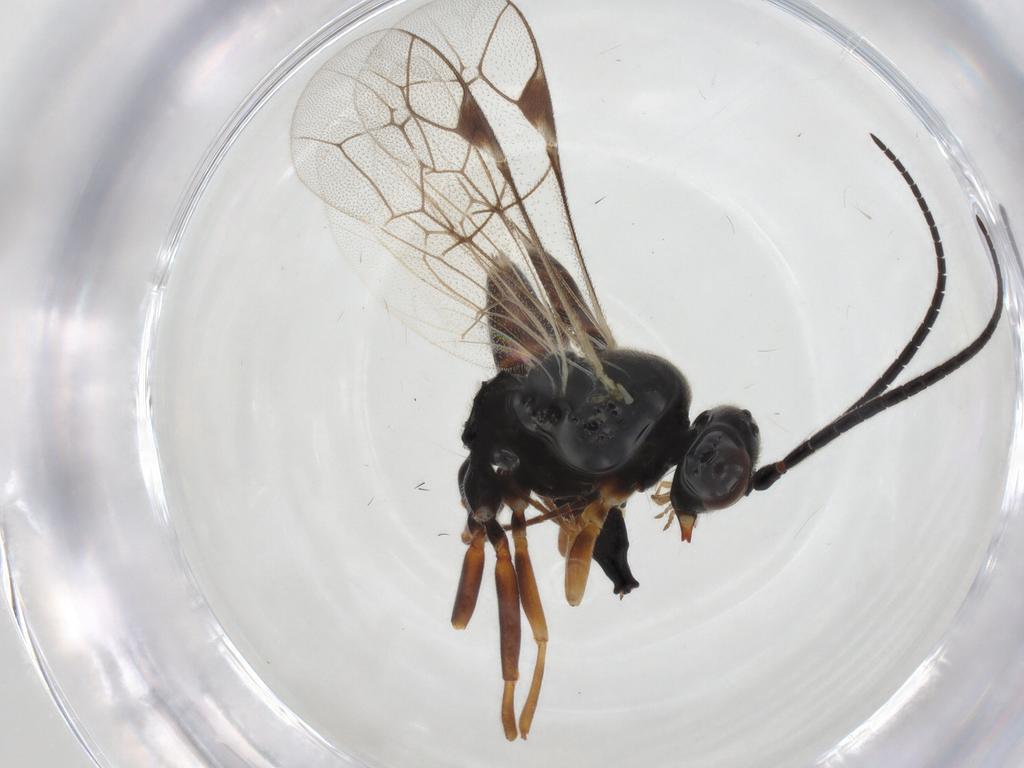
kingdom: Animalia
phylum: Arthropoda
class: Insecta
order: Hymenoptera
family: Ichneumonidae
